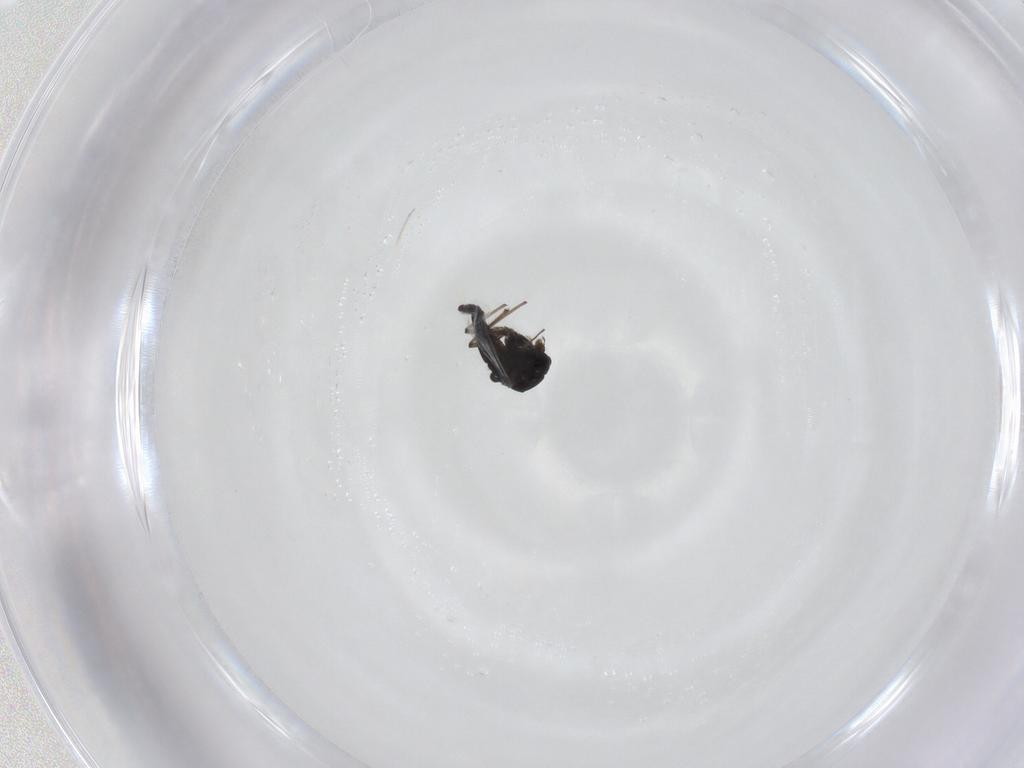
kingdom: Animalia
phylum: Arthropoda
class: Insecta
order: Diptera
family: Chironomidae
